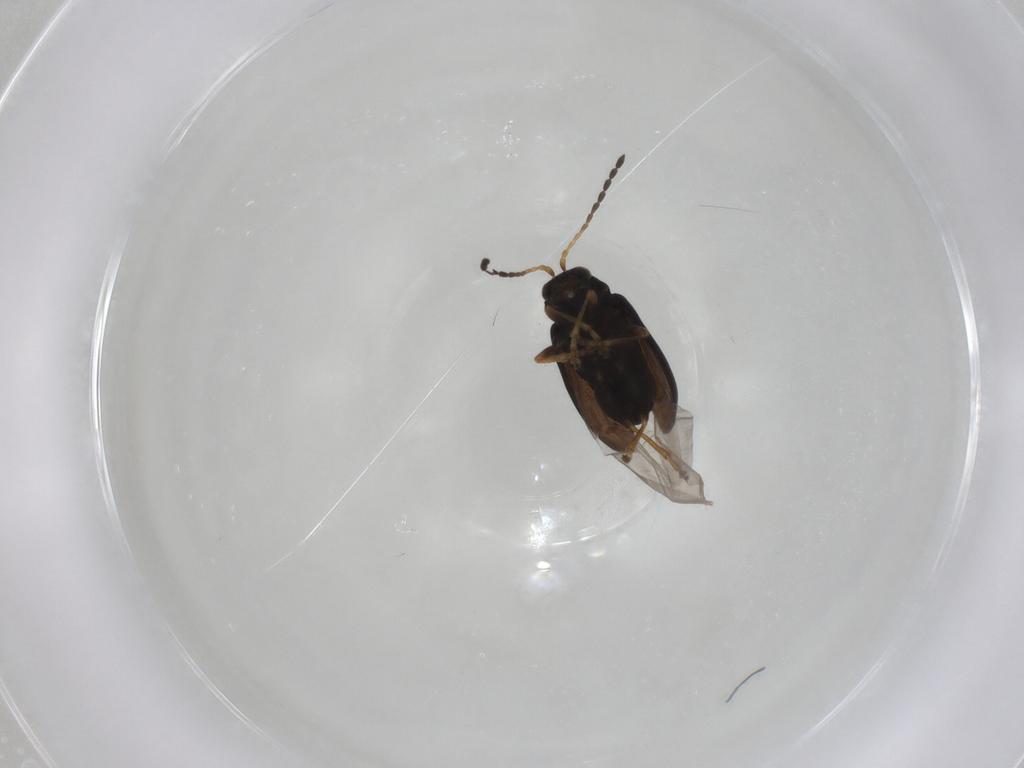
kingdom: Animalia
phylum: Arthropoda
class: Insecta
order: Coleoptera
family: Chrysomelidae
